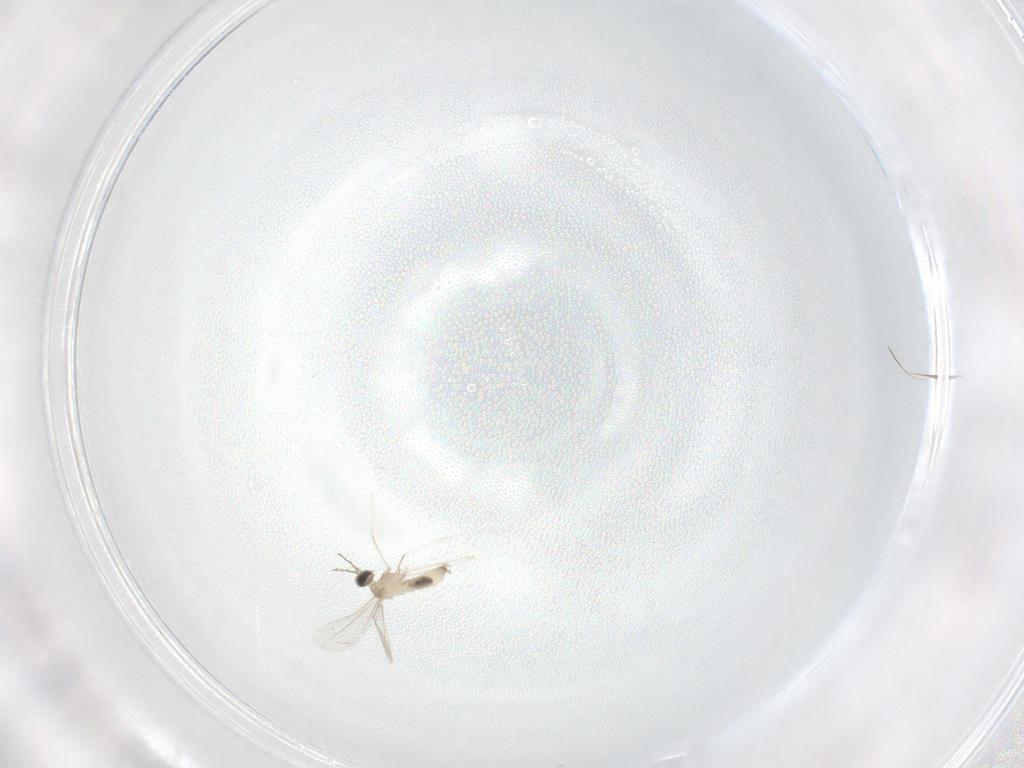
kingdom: Animalia
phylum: Arthropoda
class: Insecta
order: Diptera
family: Cecidomyiidae
